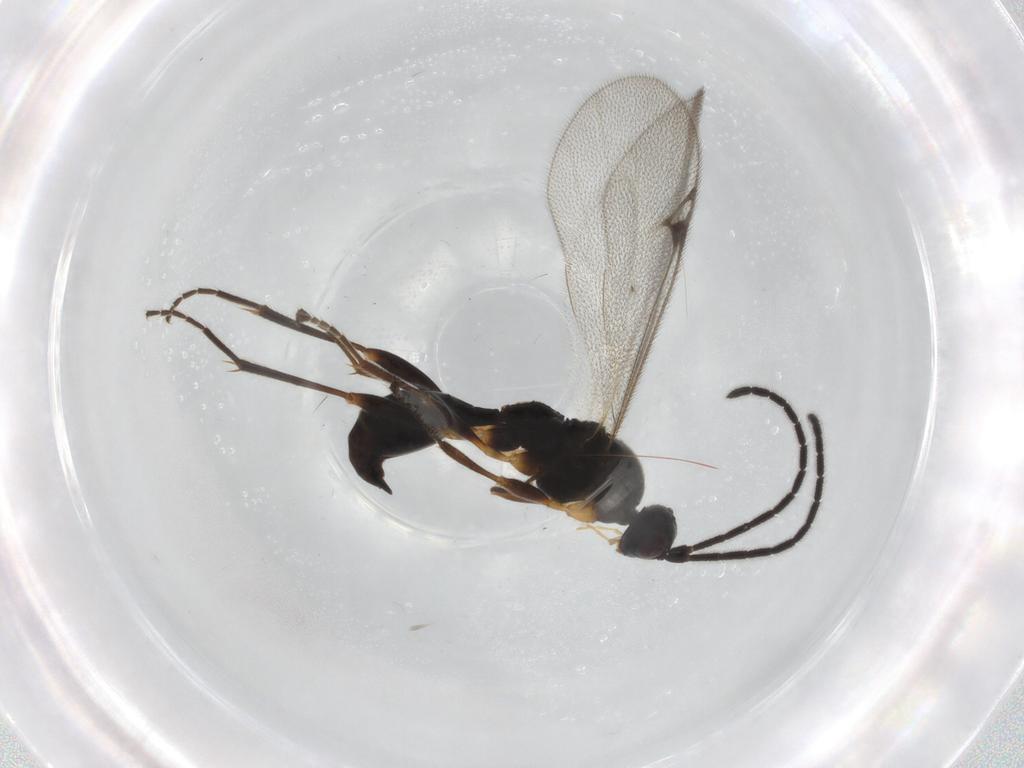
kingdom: Animalia
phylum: Arthropoda
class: Insecta
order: Hymenoptera
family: Proctotrupidae
